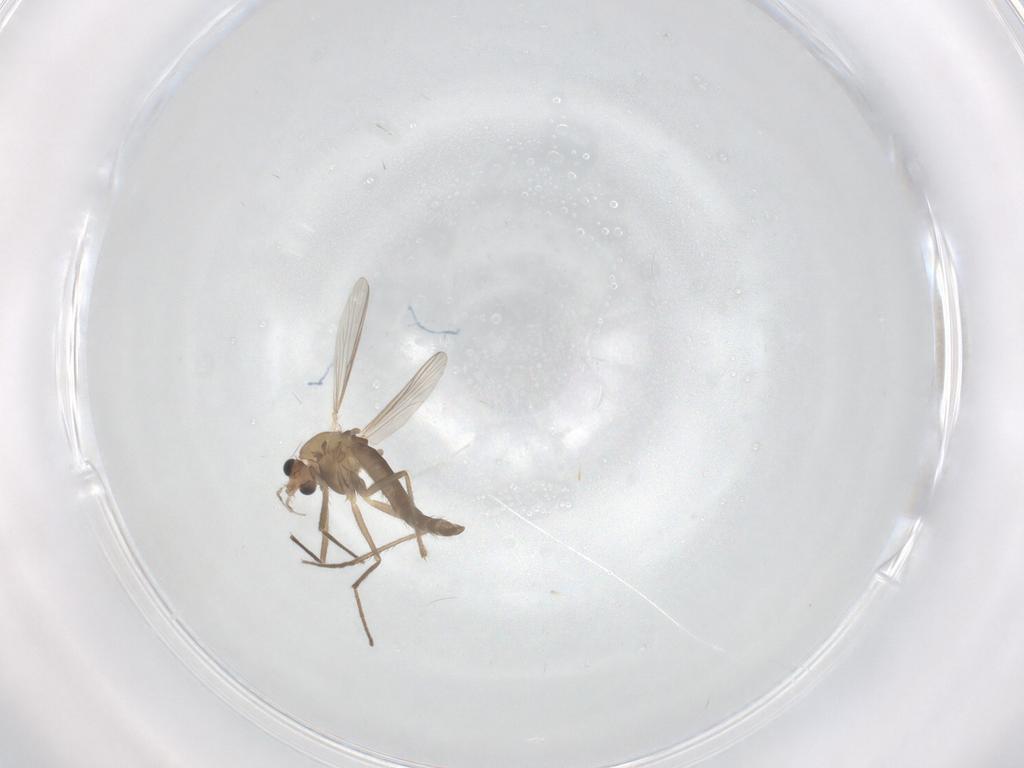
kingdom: Animalia
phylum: Arthropoda
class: Insecta
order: Diptera
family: Chironomidae
